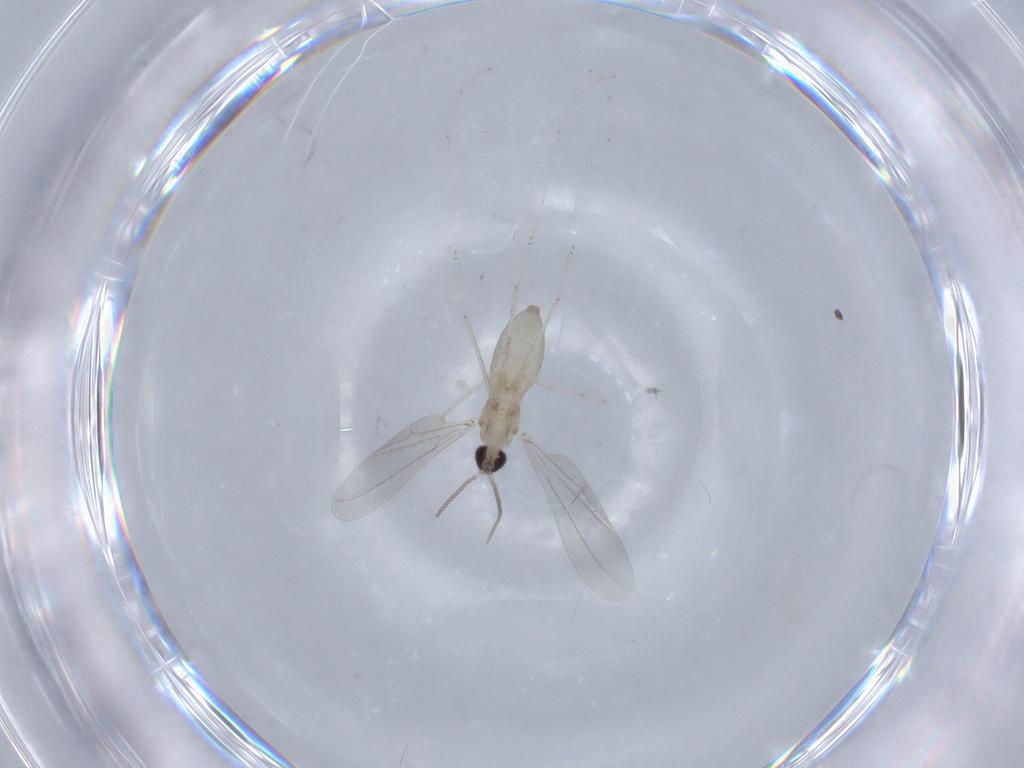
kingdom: Animalia
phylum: Arthropoda
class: Insecta
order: Diptera
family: Cecidomyiidae
